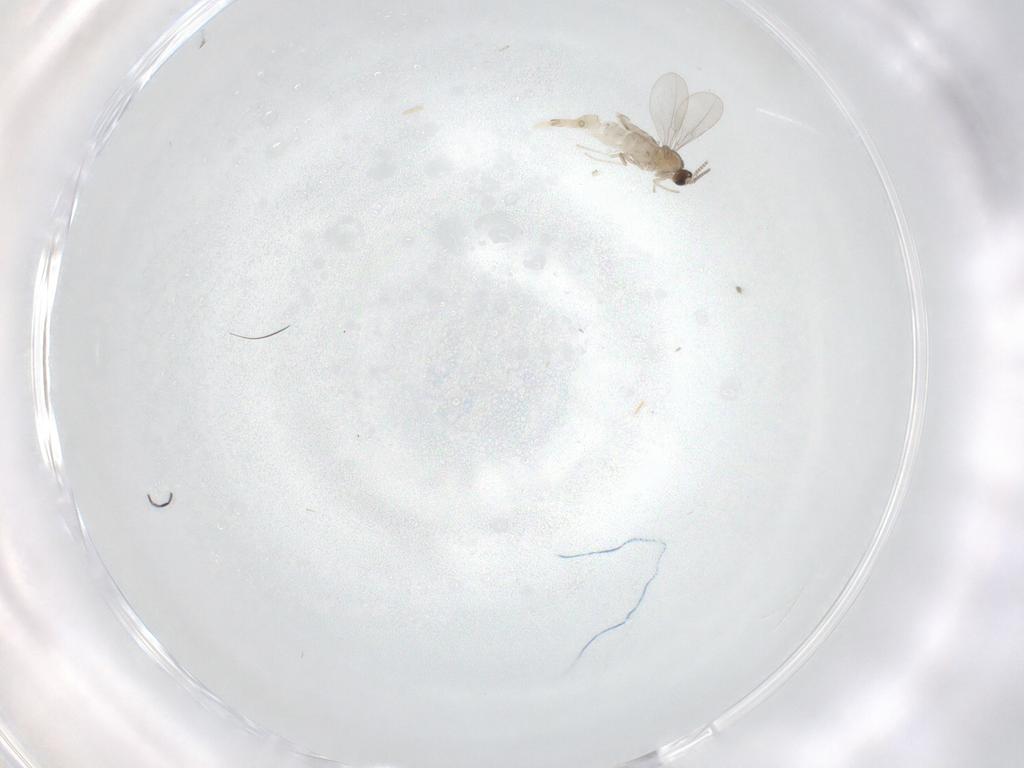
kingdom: Animalia
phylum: Arthropoda
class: Insecta
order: Diptera
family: Cecidomyiidae
